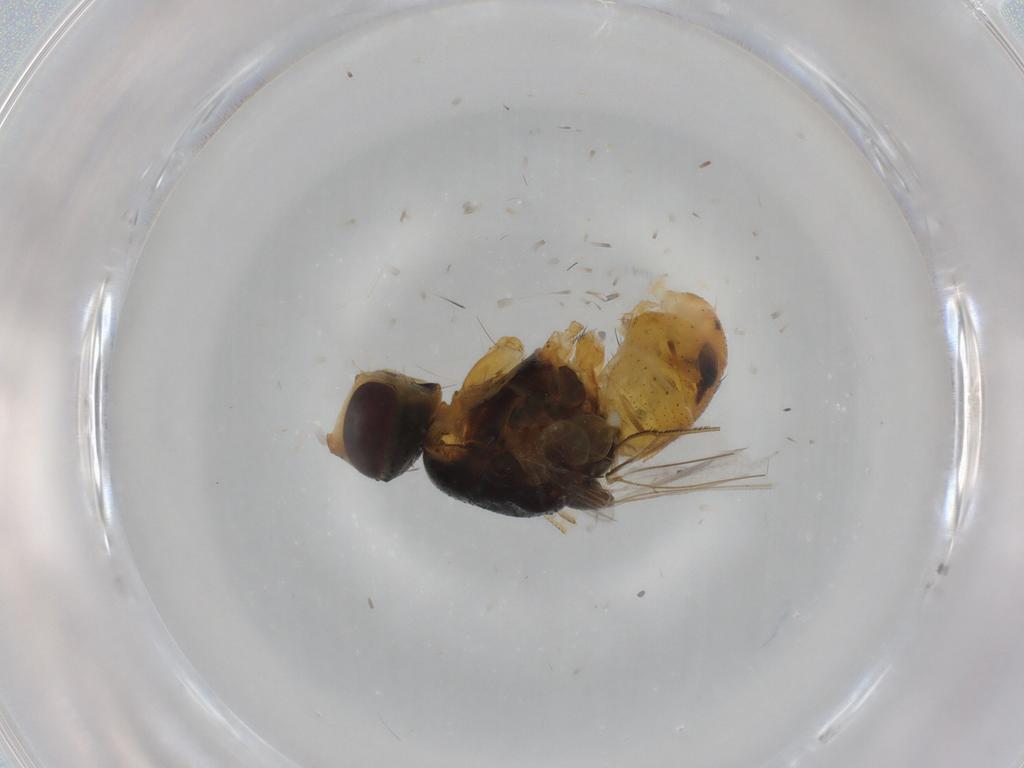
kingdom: Animalia
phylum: Arthropoda
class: Insecta
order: Diptera
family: Muscidae
